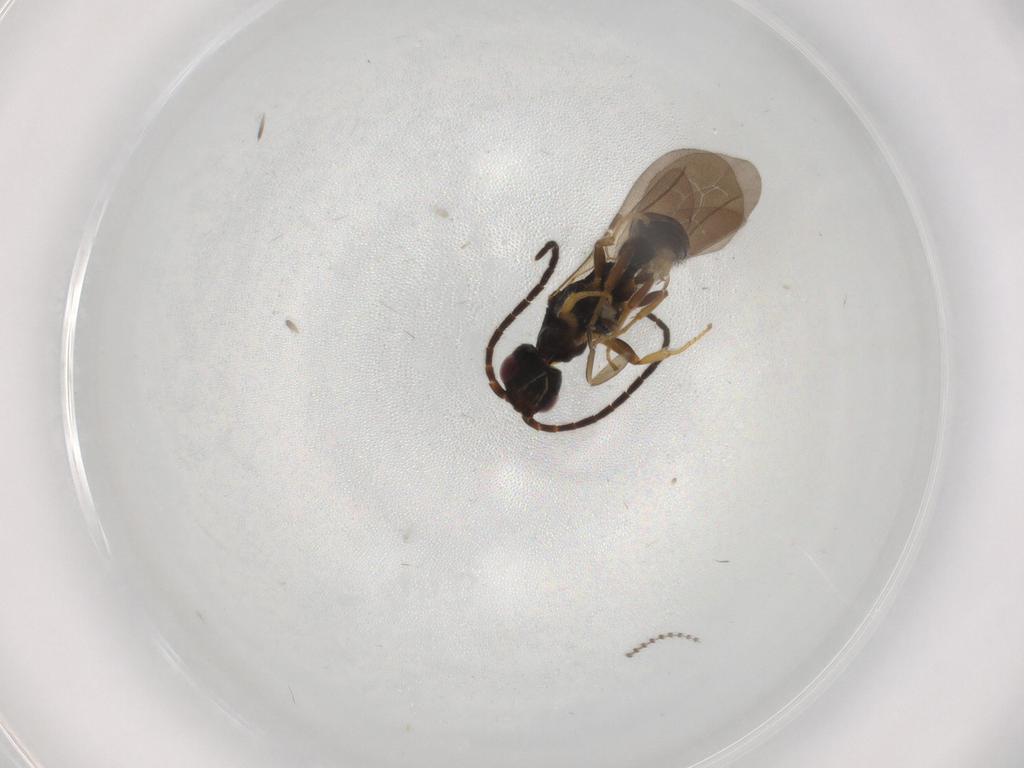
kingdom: Animalia
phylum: Arthropoda
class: Insecta
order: Hymenoptera
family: Bethylidae
